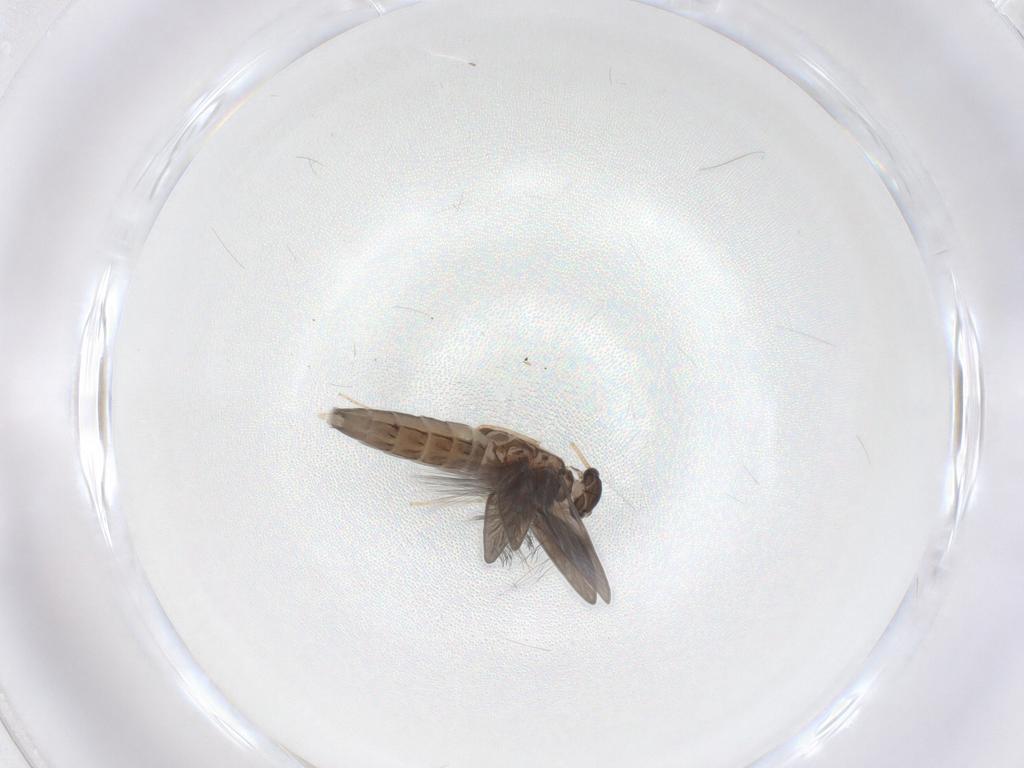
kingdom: Animalia
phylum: Arthropoda
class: Insecta
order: Trichoptera
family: Hydroptilidae
